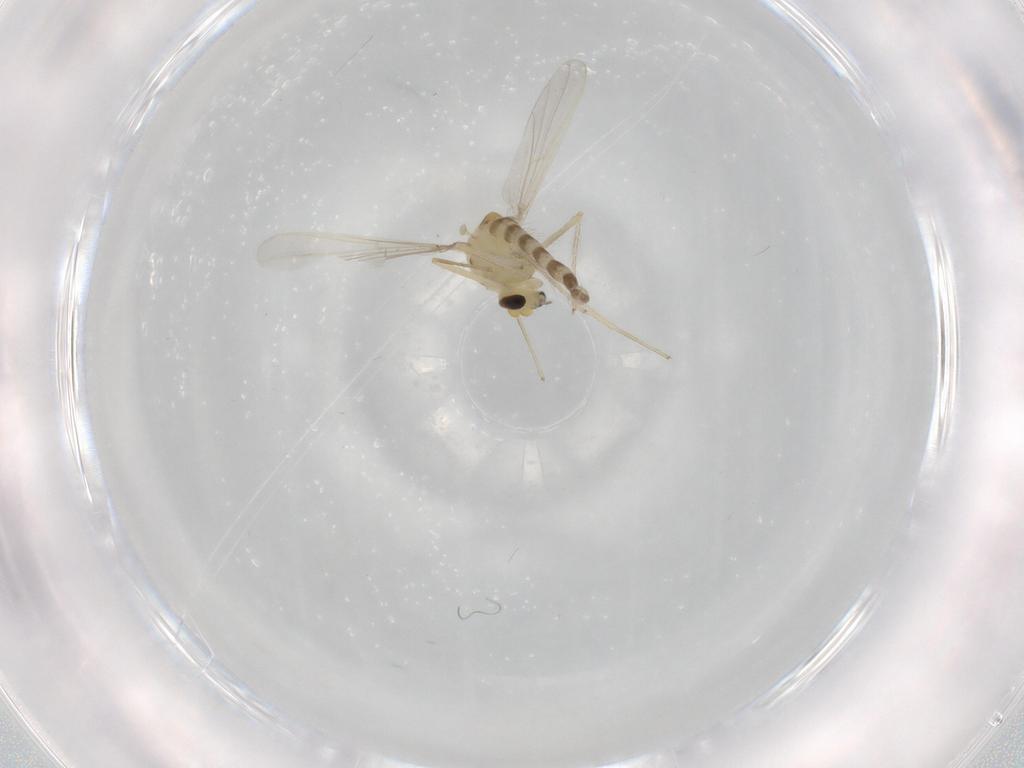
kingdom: Animalia
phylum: Arthropoda
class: Insecta
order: Diptera
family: Chironomidae
